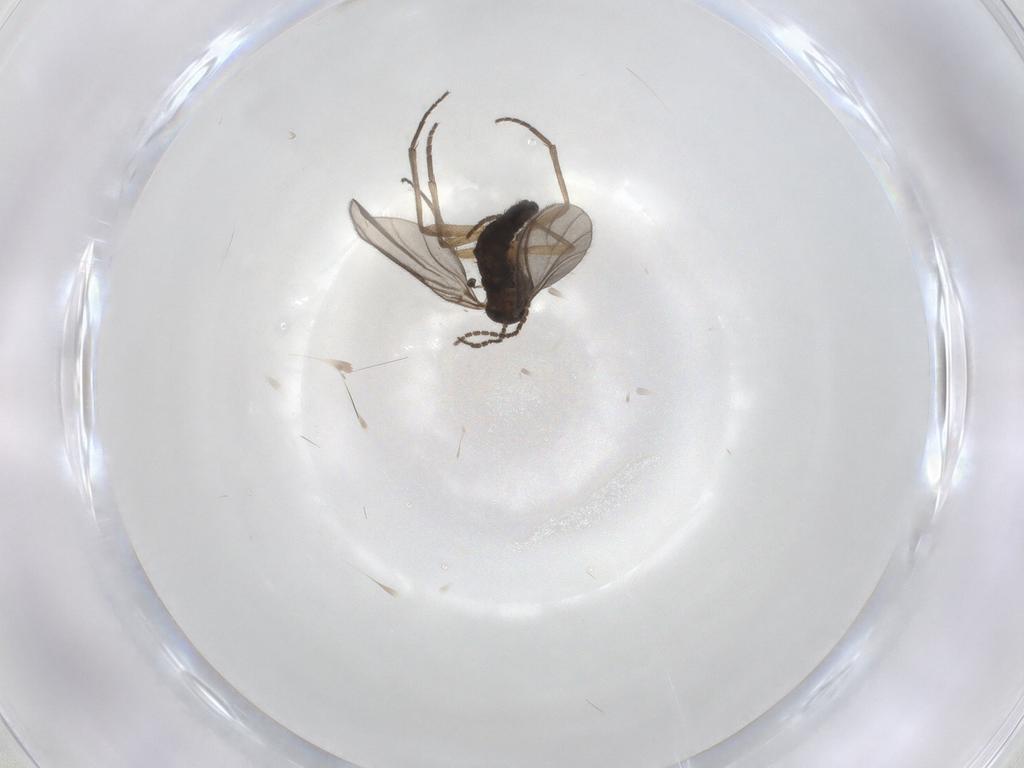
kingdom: Animalia
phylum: Arthropoda
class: Insecta
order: Diptera
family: Sciaridae
